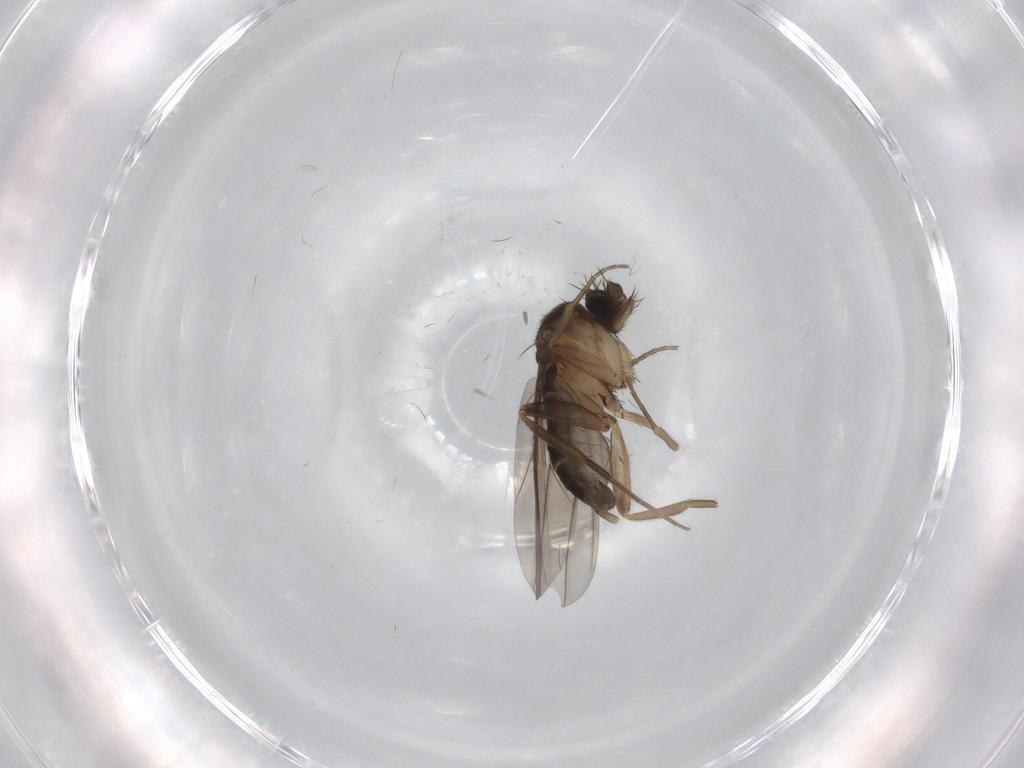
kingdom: Animalia
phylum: Arthropoda
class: Insecta
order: Diptera
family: Phoridae
